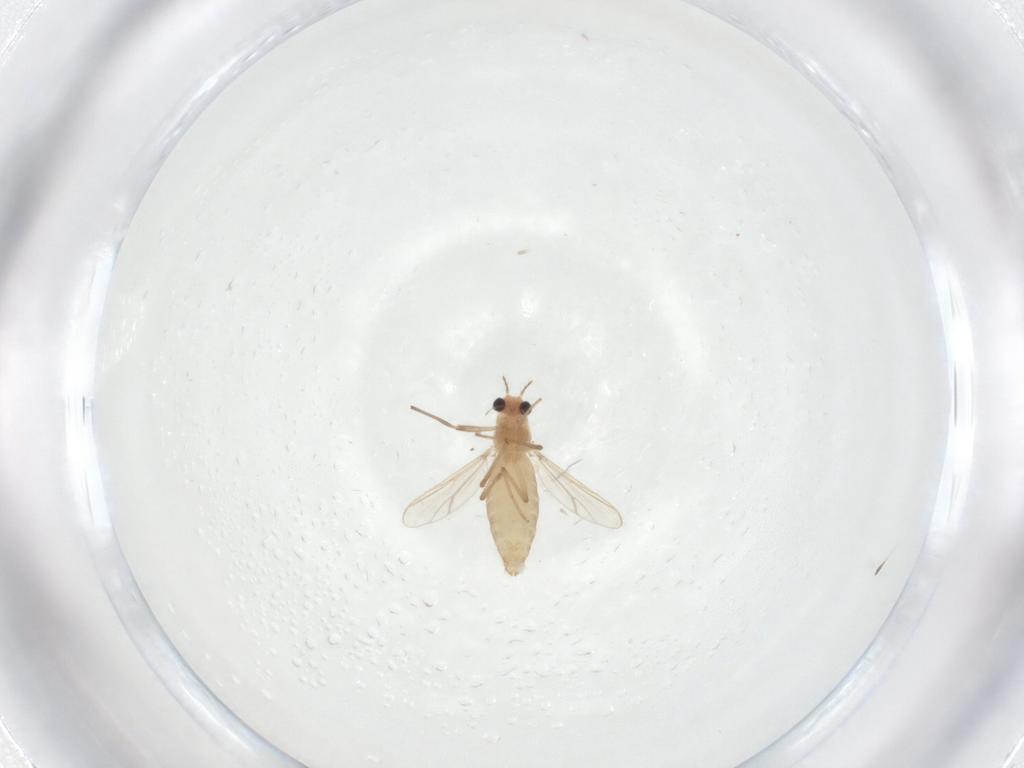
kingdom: Animalia
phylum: Arthropoda
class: Insecta
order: Diptera
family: Chironomidae
